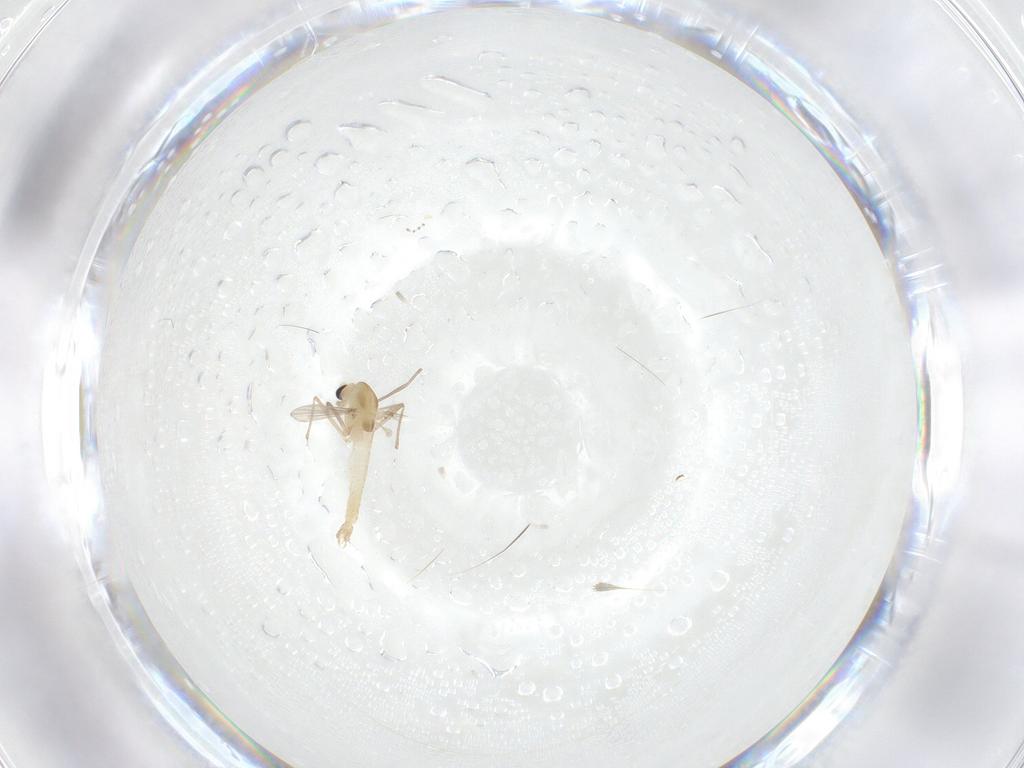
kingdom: Animalia
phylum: Arthropoda
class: Insecta
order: Diptera
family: Chironomidae
